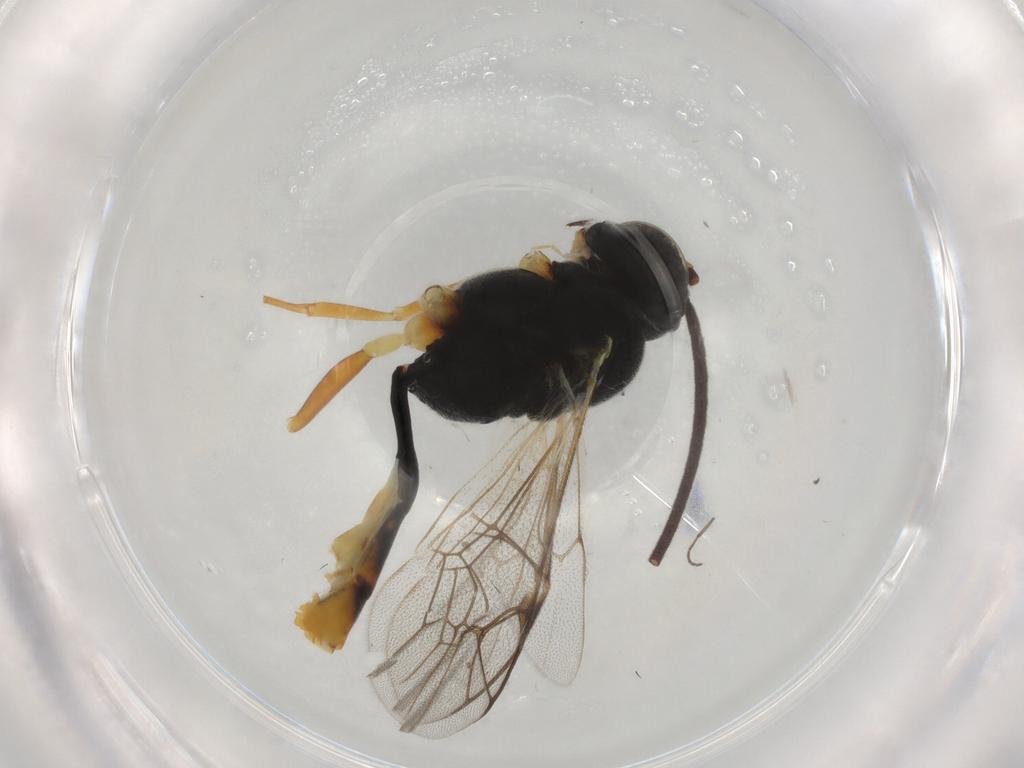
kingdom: Animalia
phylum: Arthropoda
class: Insecta
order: Hymenoptera
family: Ichneumonidae
